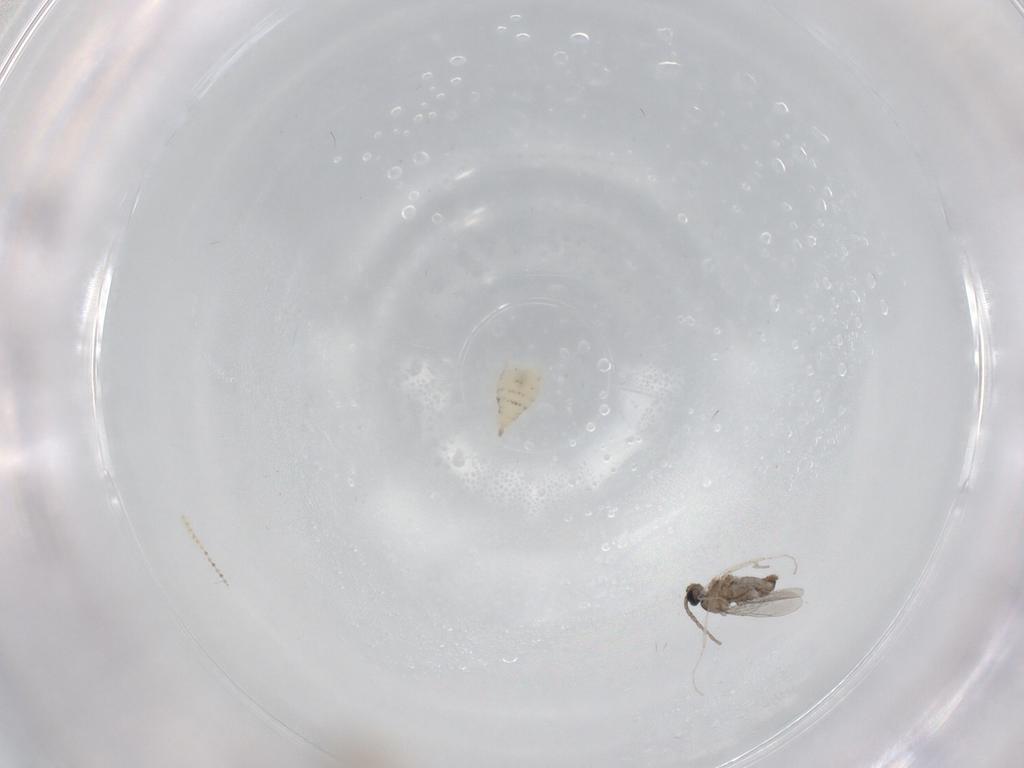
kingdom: Animalia
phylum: Arthropoda
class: Insecta
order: Diptera
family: Cecidomyiidae
